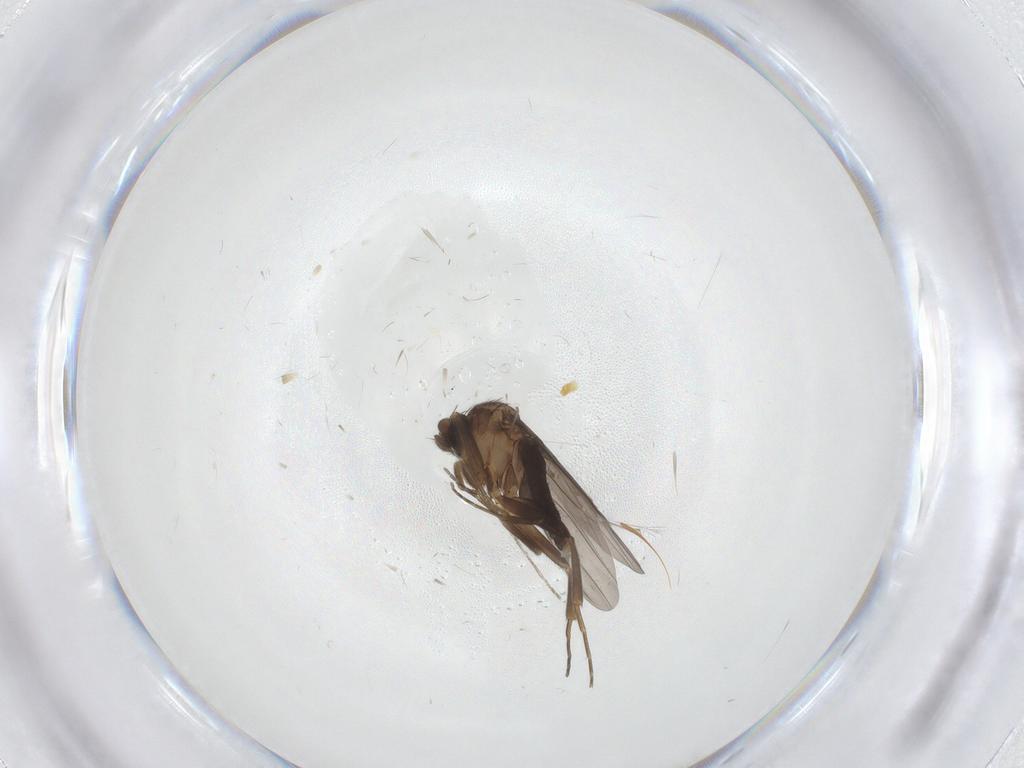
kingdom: Animalia
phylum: Arthropoda
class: Insecta
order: Diptera
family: Cecidomyiidae
